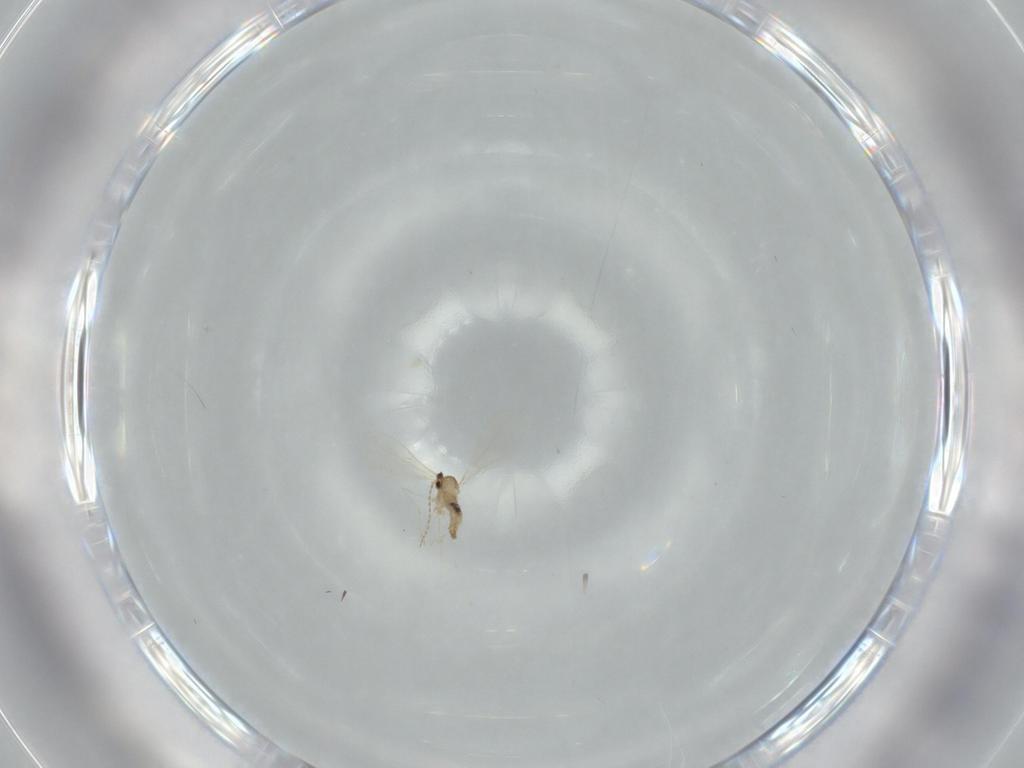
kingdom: Animalia
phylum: Arthropoda
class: Insecta
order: Diptera
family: Cecidomyiidae
